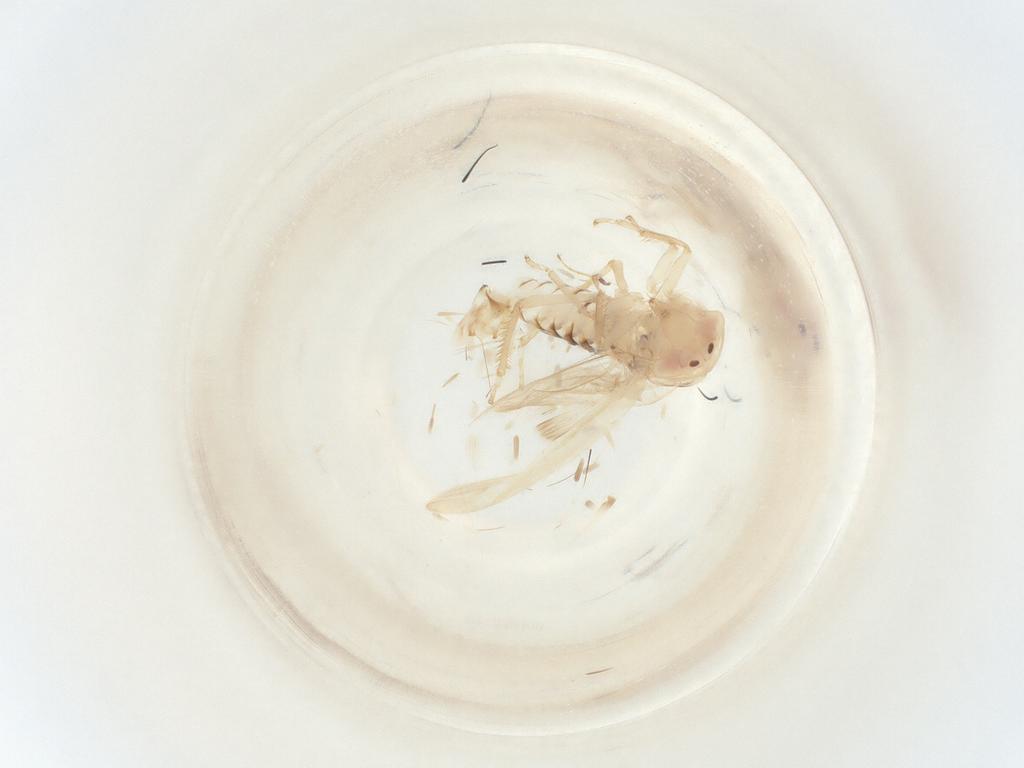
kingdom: Animalia
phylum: Arthropoda
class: Insecta
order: Hemiptera
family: Cicadellidae
